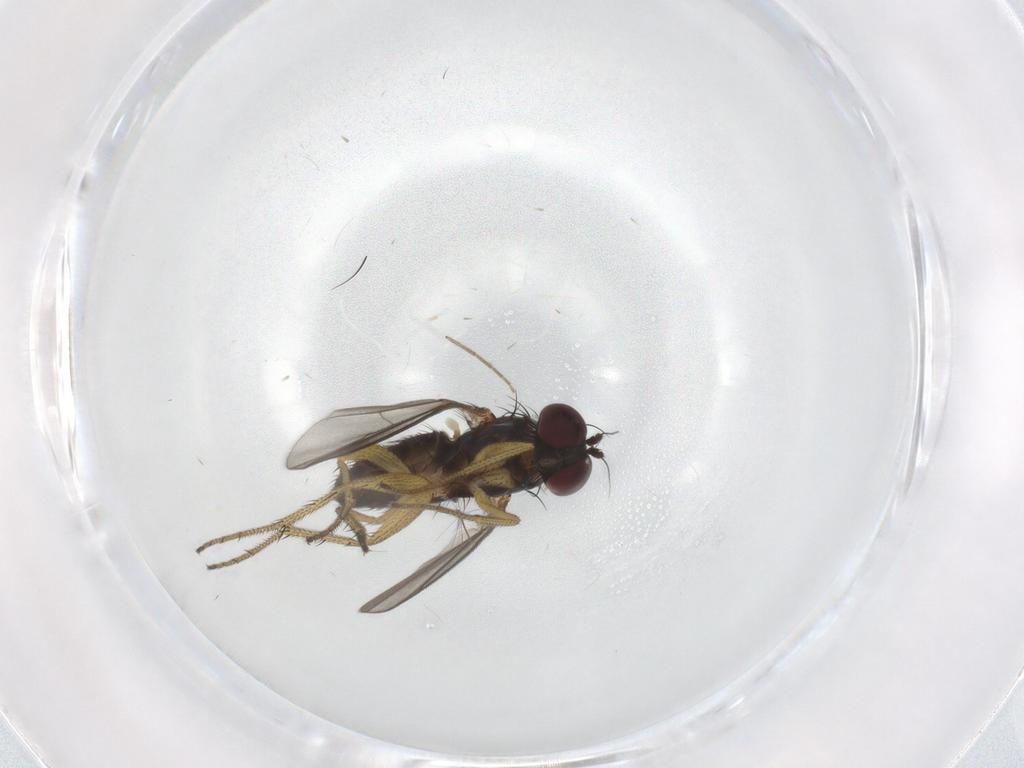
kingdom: Animalia
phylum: Arthropoda
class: Insecta
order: Diptera
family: Chironomidae
